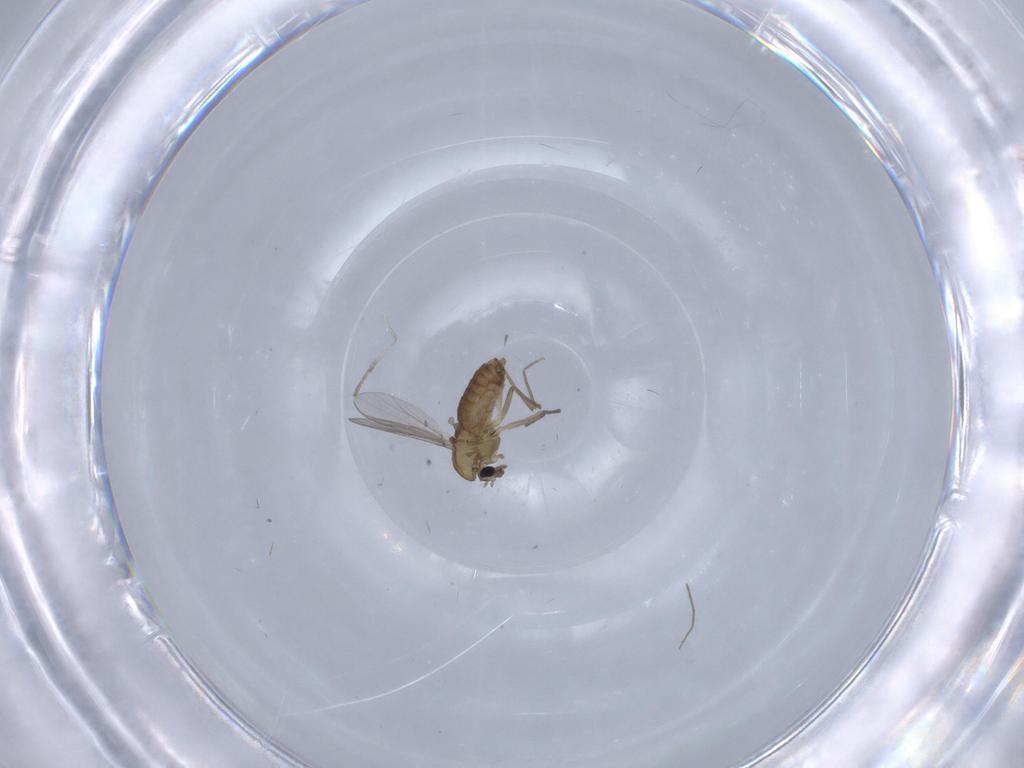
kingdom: Animalia
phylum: Arthropoda
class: Insecta
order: Diptera
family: Chironomidae
